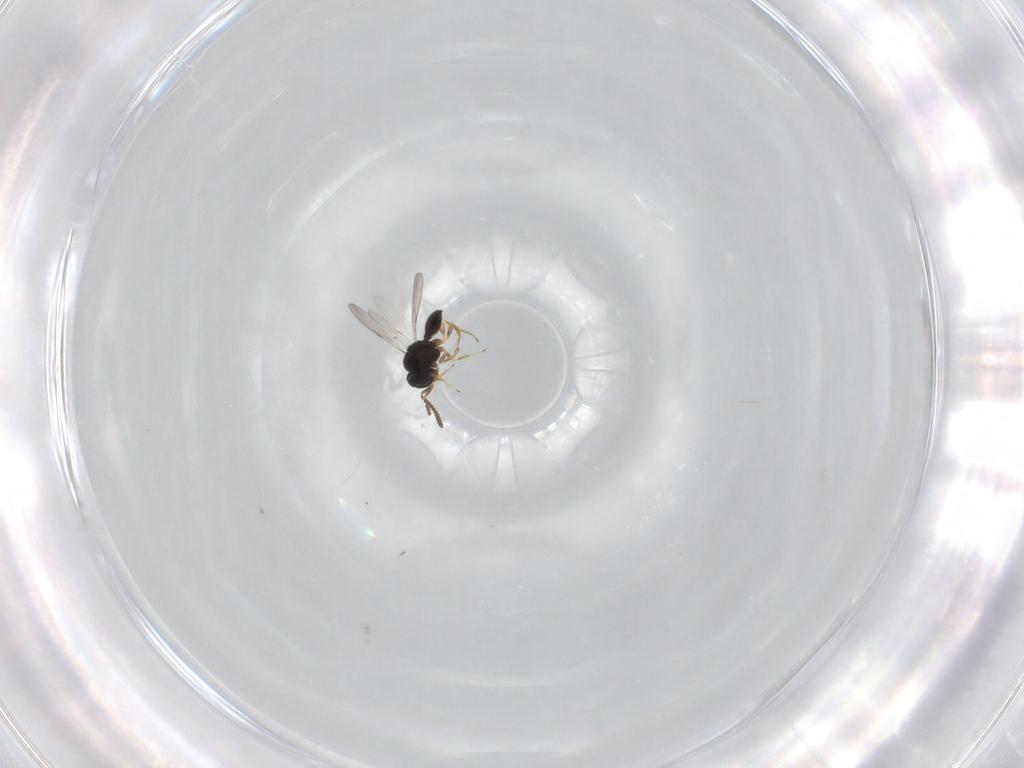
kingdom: Animalia
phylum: Arthropoda
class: Insecta
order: Hymenoptera
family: Scelionidae
